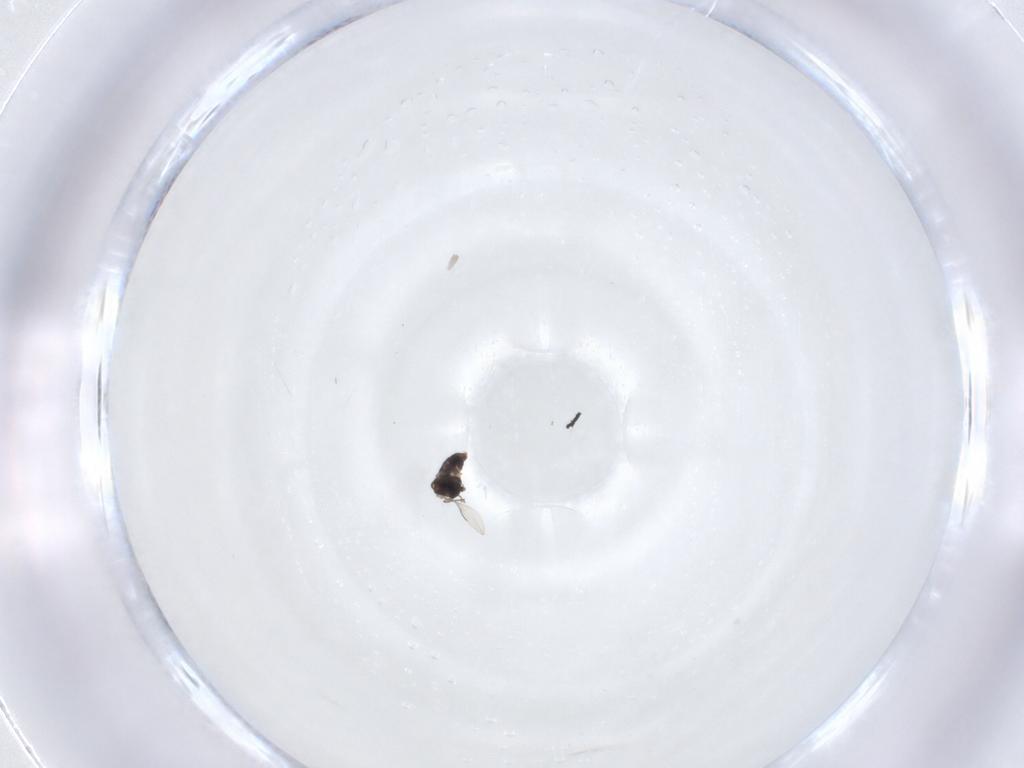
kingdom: Animalia
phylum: Arthropoda
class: Insecta
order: Diptera
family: Chironomidae
